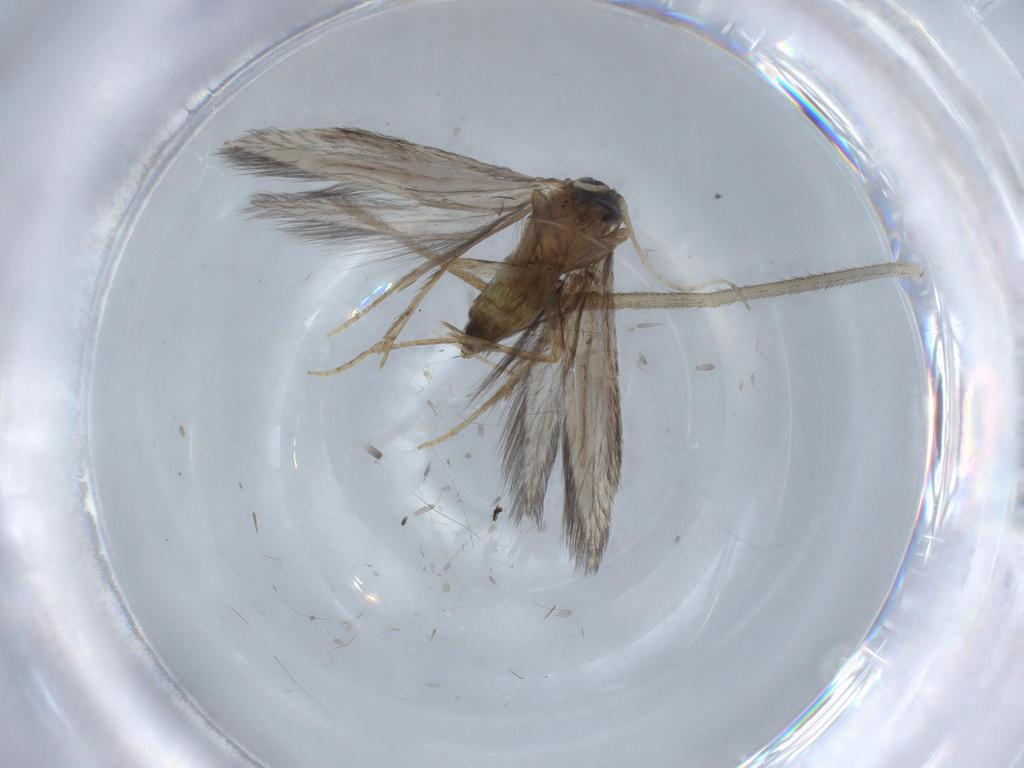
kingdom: Animalia
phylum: Arthropoda
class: Insecta
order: Trichoptera
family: Hydroptilidae
